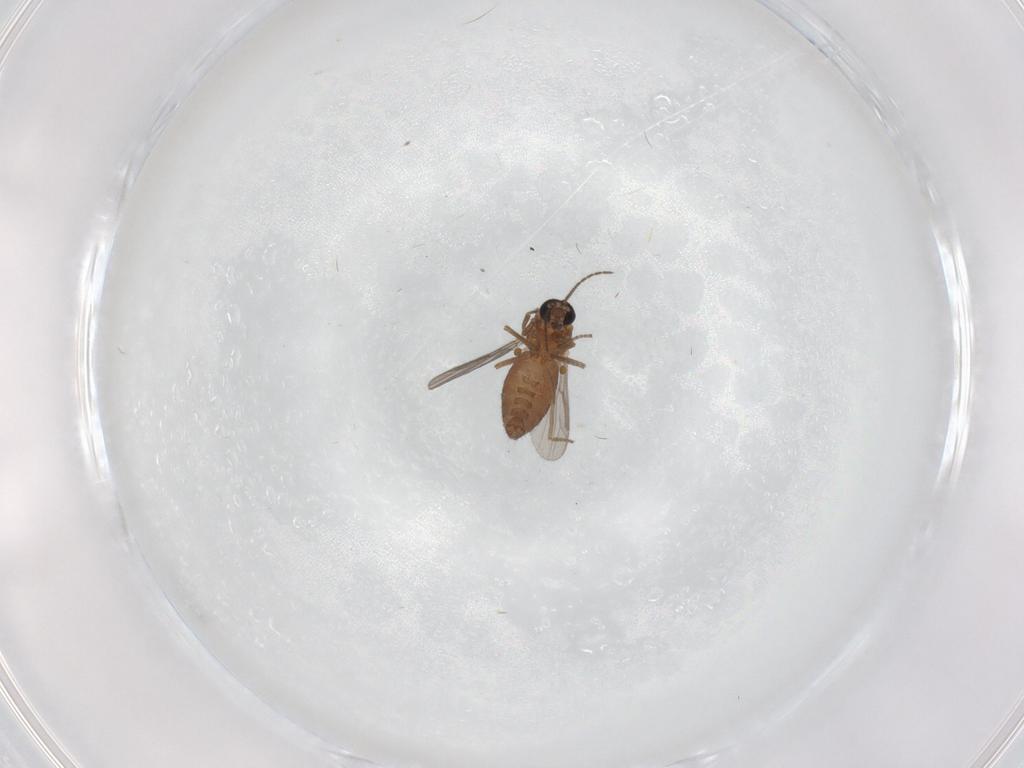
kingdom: Animalia
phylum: Arthropoda
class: Insecta
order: Diptera
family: Ceratopogonidae
